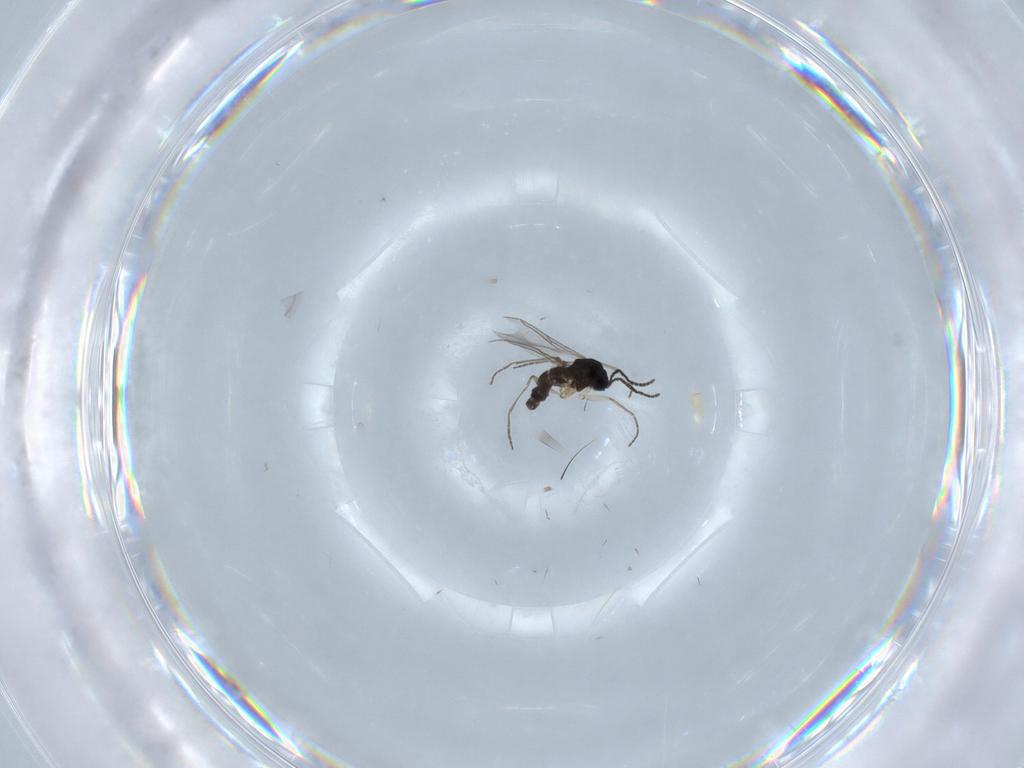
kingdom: Animalia
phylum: Arthropoda
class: Insecta
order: Diptera
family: Sciaridae
